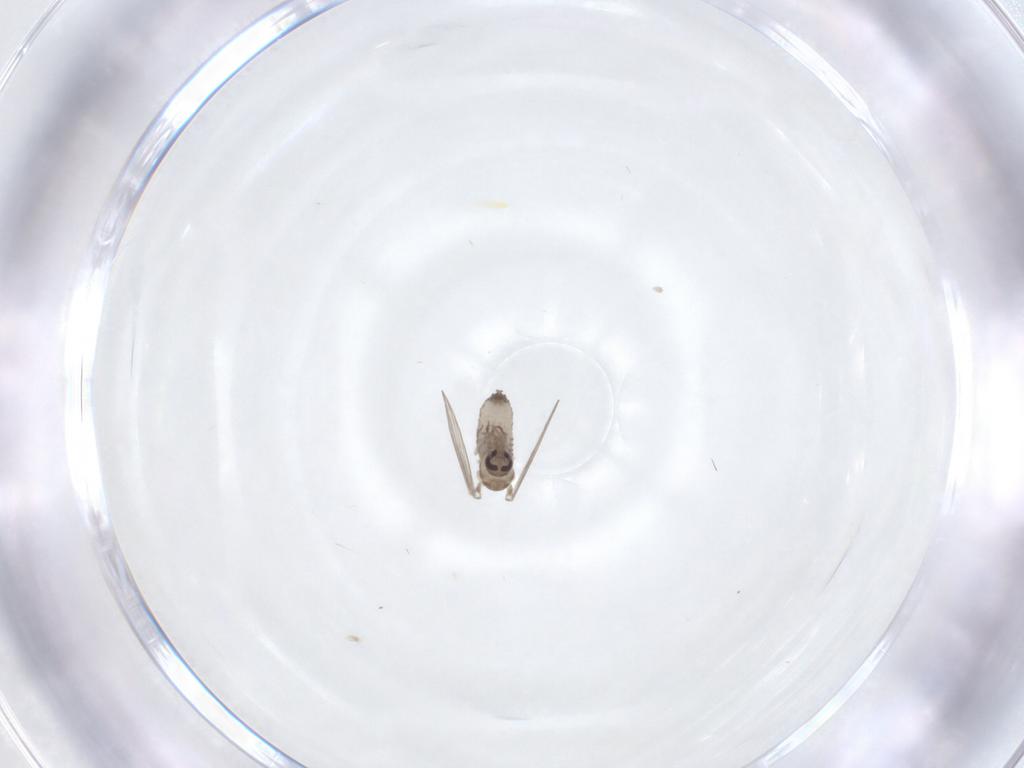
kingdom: Animalia
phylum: Arthropoda
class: Insecta
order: Diptera
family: Psychodidae
